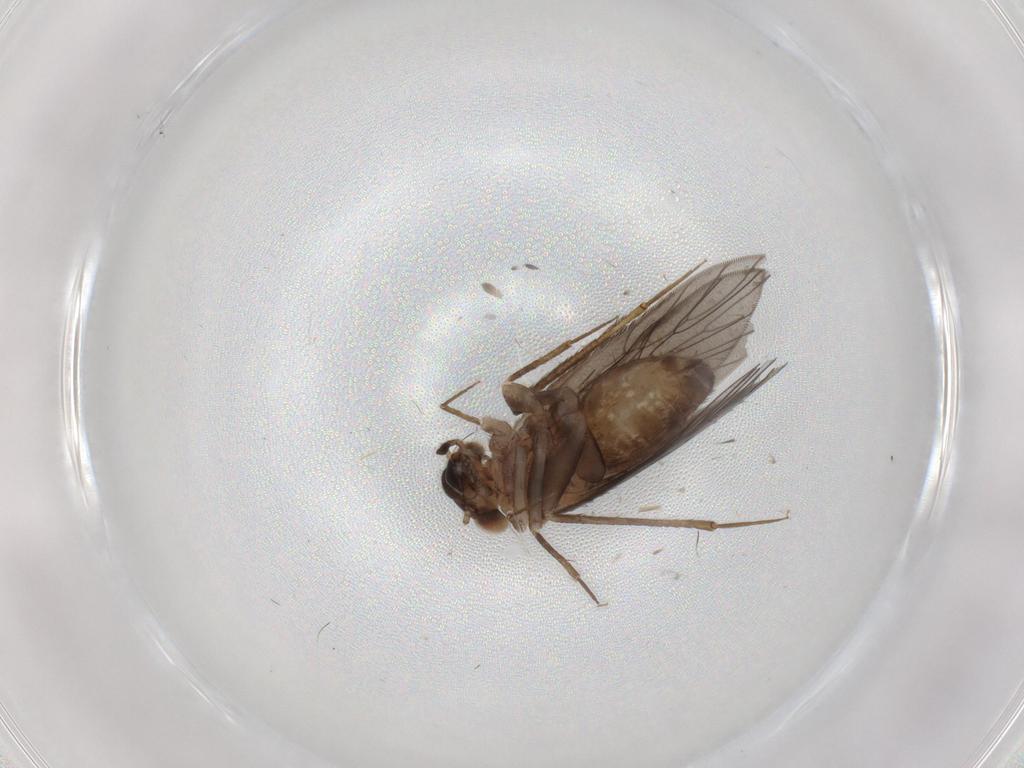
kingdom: Animalia
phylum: Arthropoda
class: Insecta
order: Psocodea
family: Lepidopsocidae
